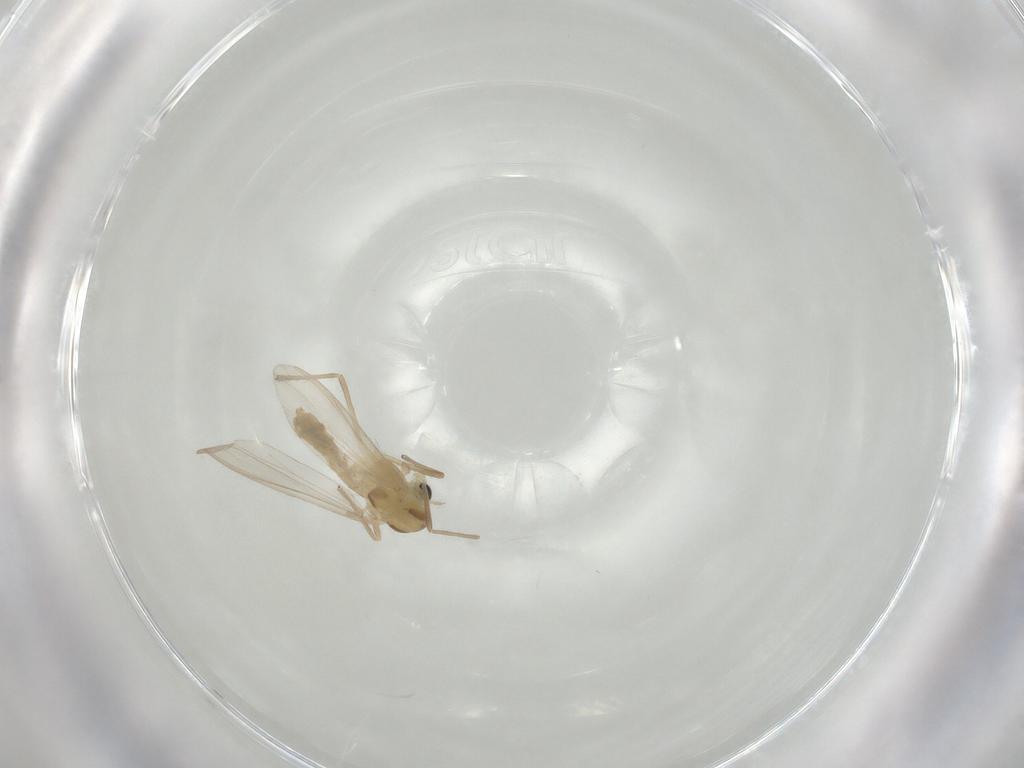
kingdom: Animalia
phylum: Arthropoda
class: Insecta
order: Diptera
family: Chironomidae
